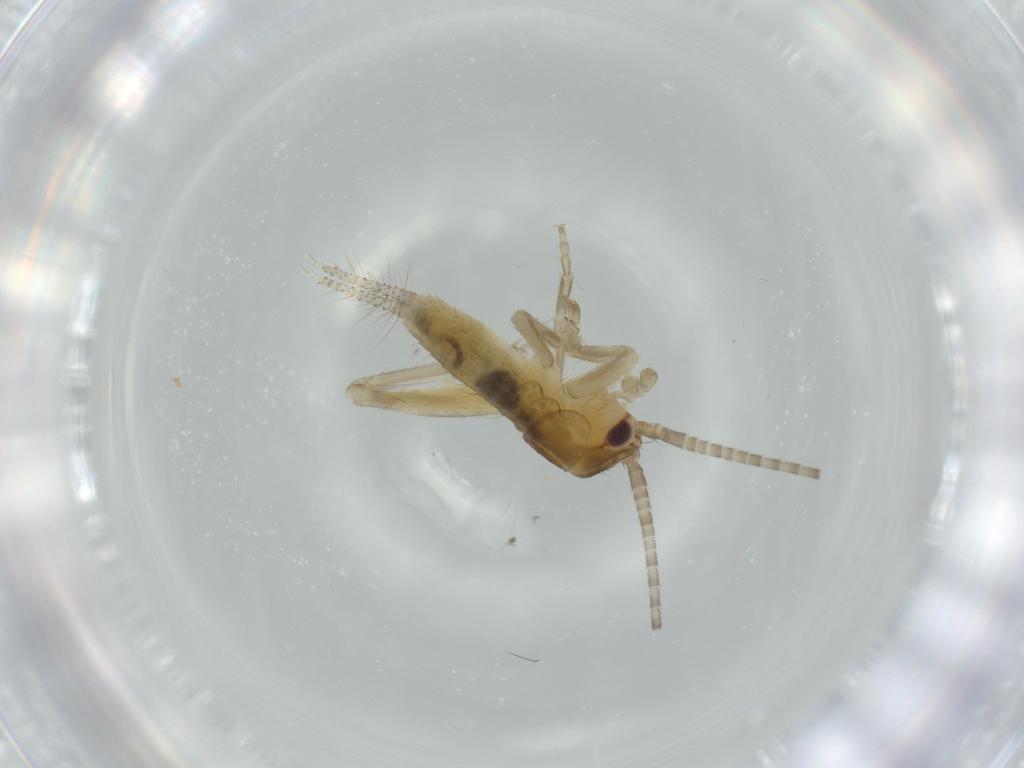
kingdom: Animalia
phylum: Arthropoda
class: Insecta
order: Orthoptera
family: Gryllidae
